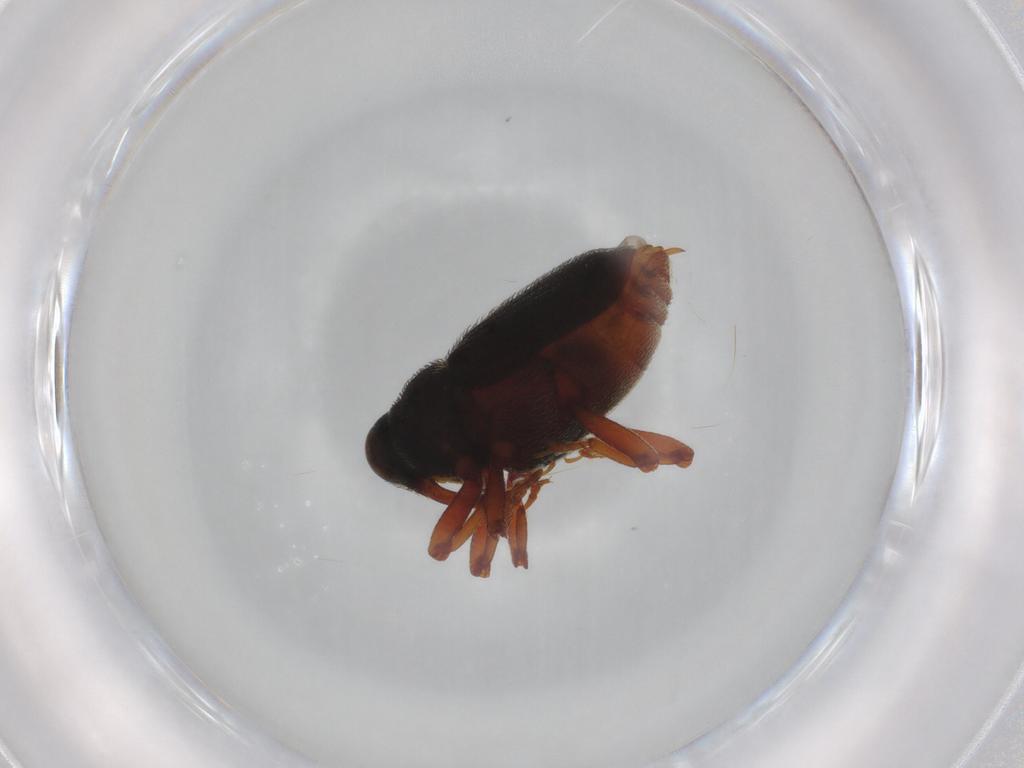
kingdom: Animalia
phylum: Arthropoda
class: Insecta
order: Coleoptera
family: Curculionidae
